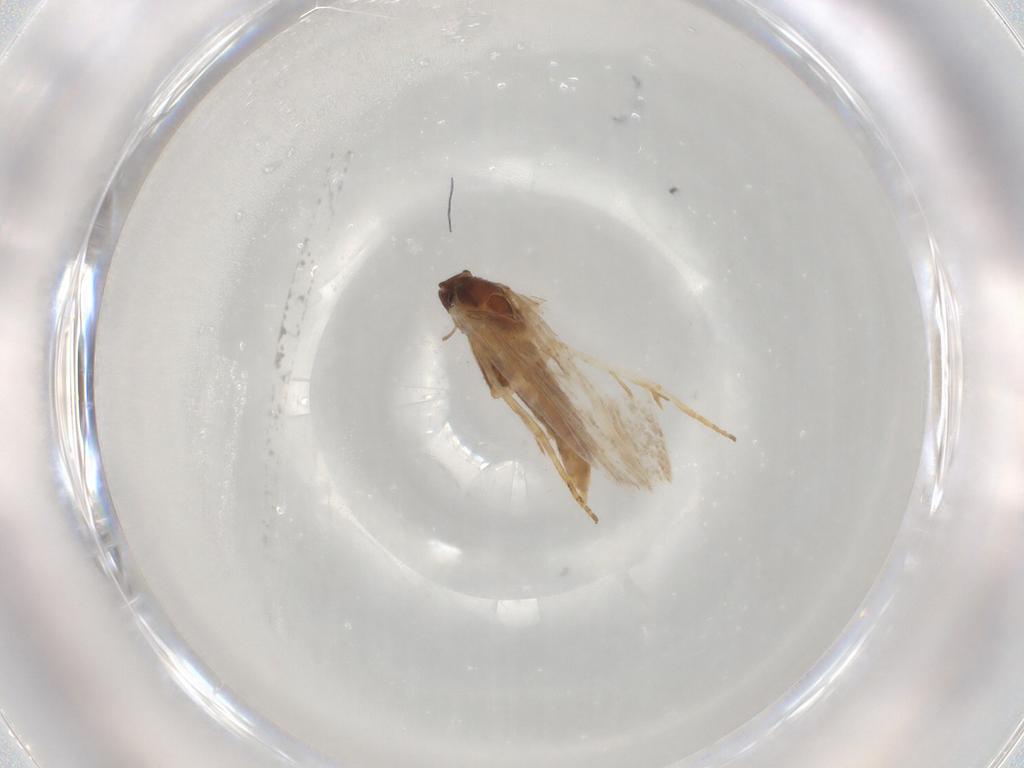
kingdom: Animalia
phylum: Arthropoda
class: Insecta
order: Lepidoptera
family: Gelechiidae
